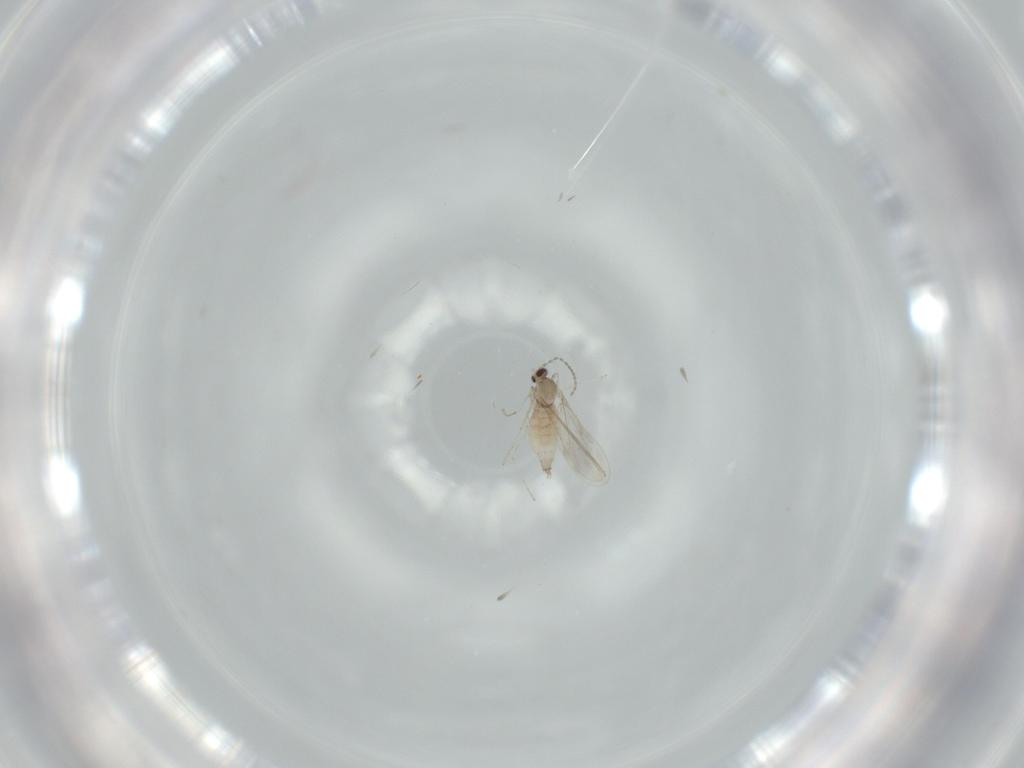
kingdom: Animalia
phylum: Arthropoda
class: Insecta
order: Diptera
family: Cecidomyiidae
